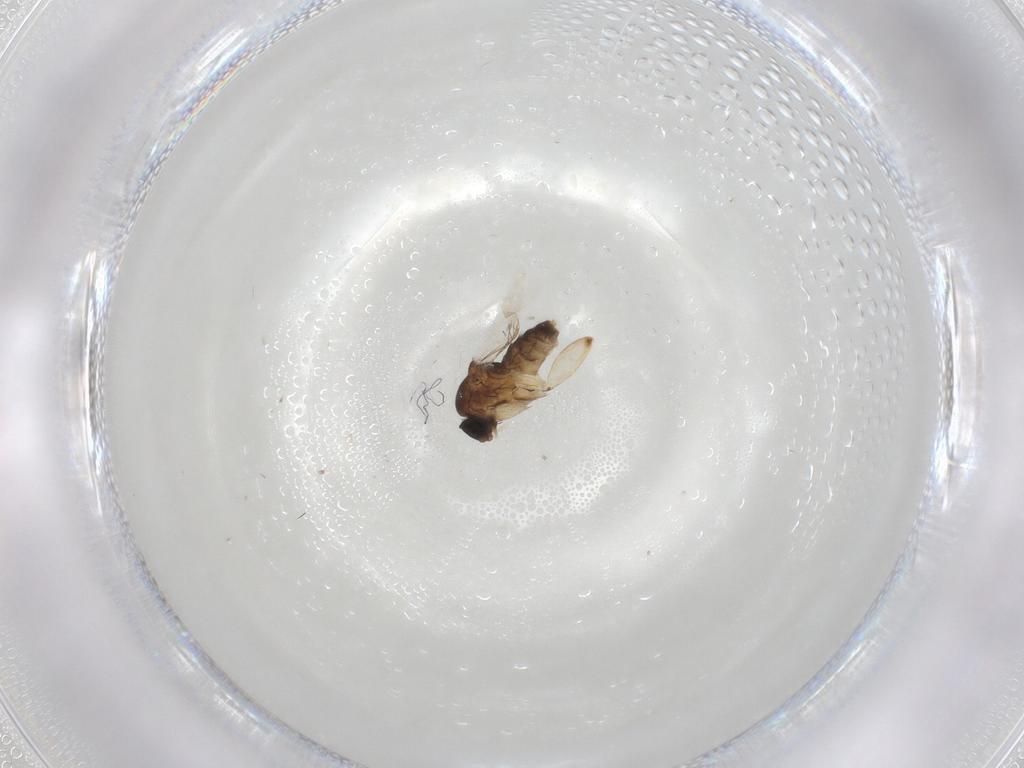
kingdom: Animalia
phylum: Arthropoda
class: Insecta
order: Diptera
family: Phoridae
